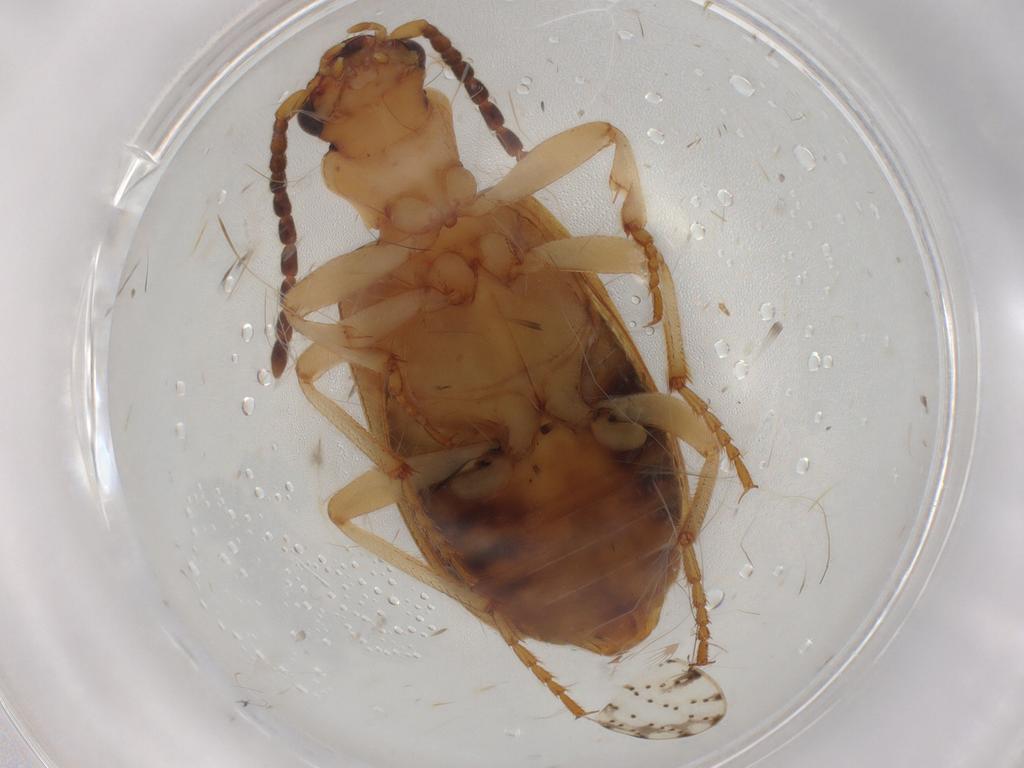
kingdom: Animalia
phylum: Arthropoda
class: Insecta
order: Coleoptera
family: Hydrophilidae
